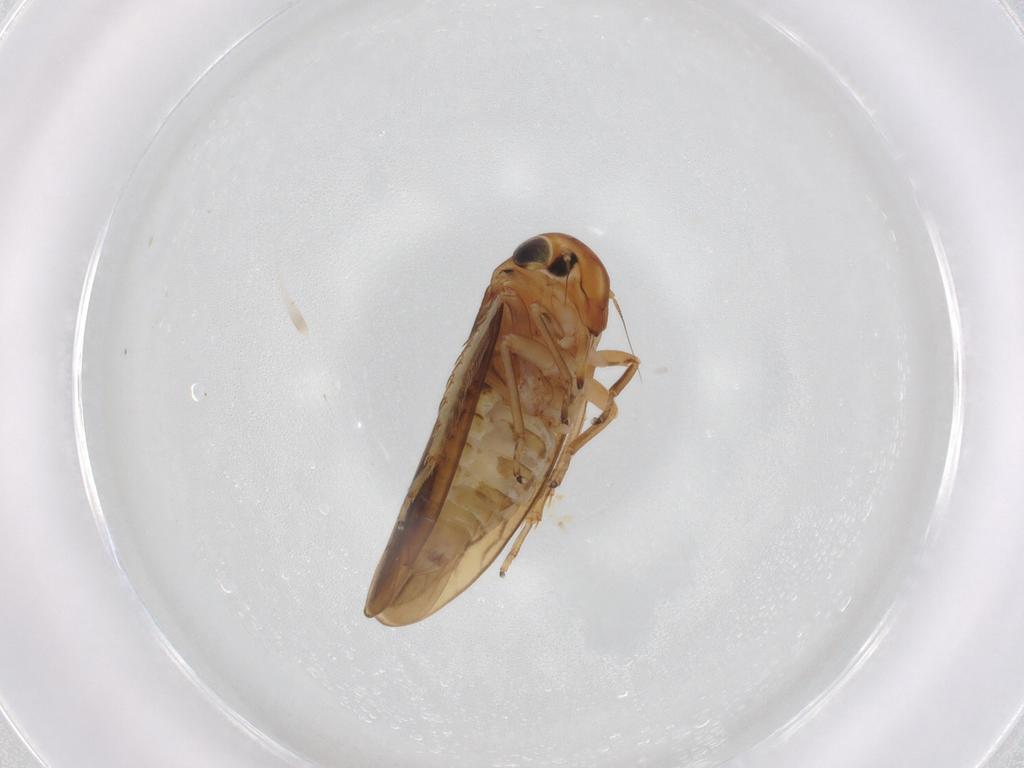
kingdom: Animalia
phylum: Arthropoda
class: Insecta
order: Hemiptera
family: Cicadellidae
